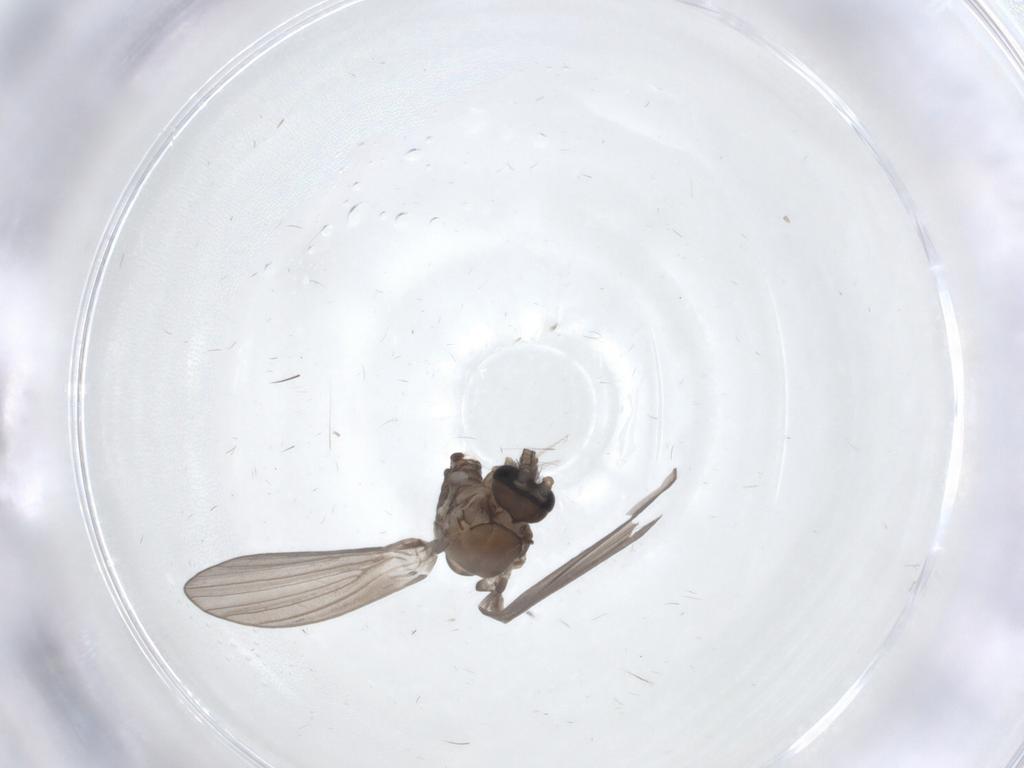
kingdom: Animalia
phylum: Arthropoda
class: Insecta
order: Diptera
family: Psychodidae
